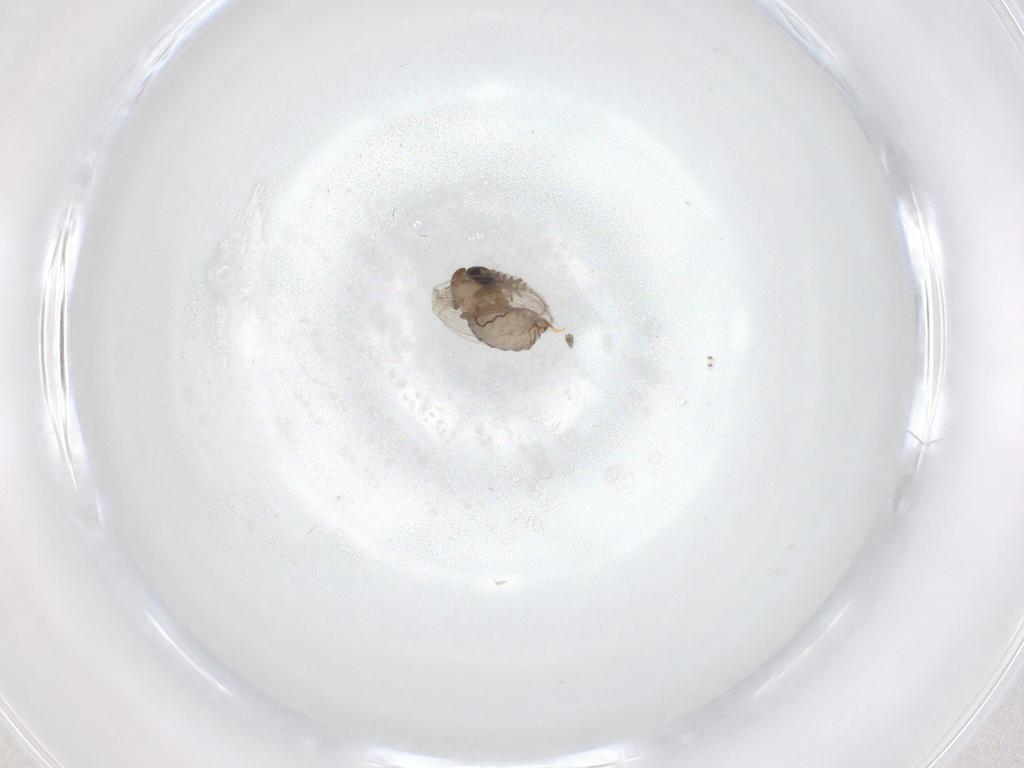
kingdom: Animalia
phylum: Arthropoda
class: Insecta
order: Diptera
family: Psychodidae
